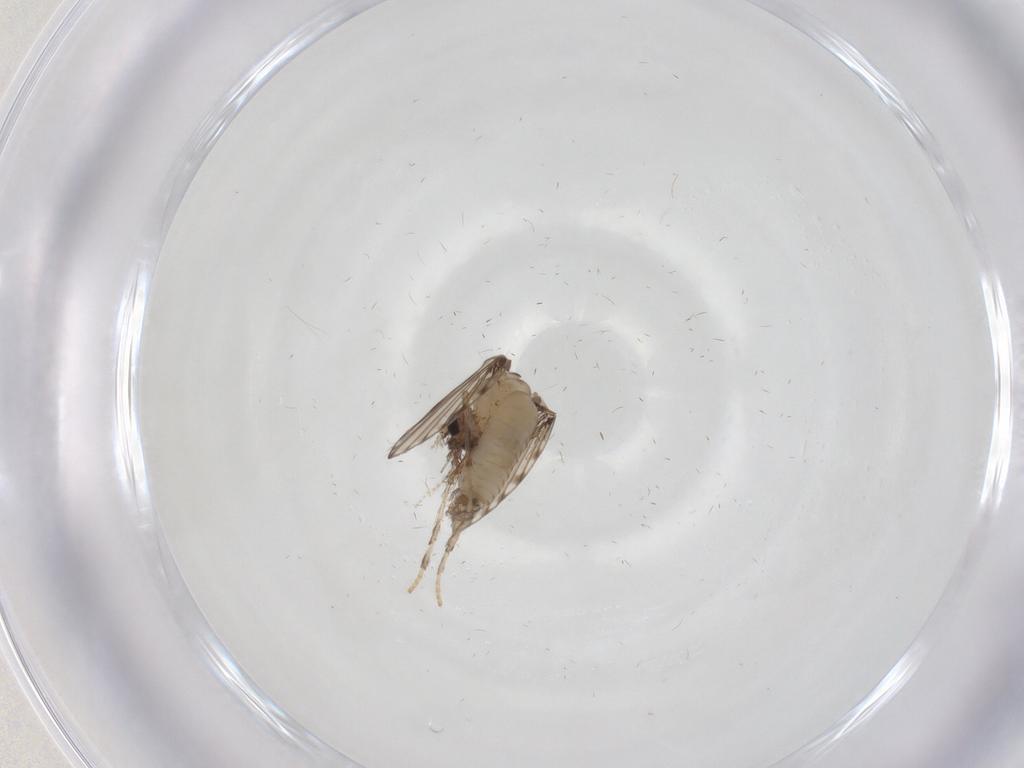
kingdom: Animalia
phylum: Arthropoda
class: Insecta
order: Diptera
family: Psychodidae
